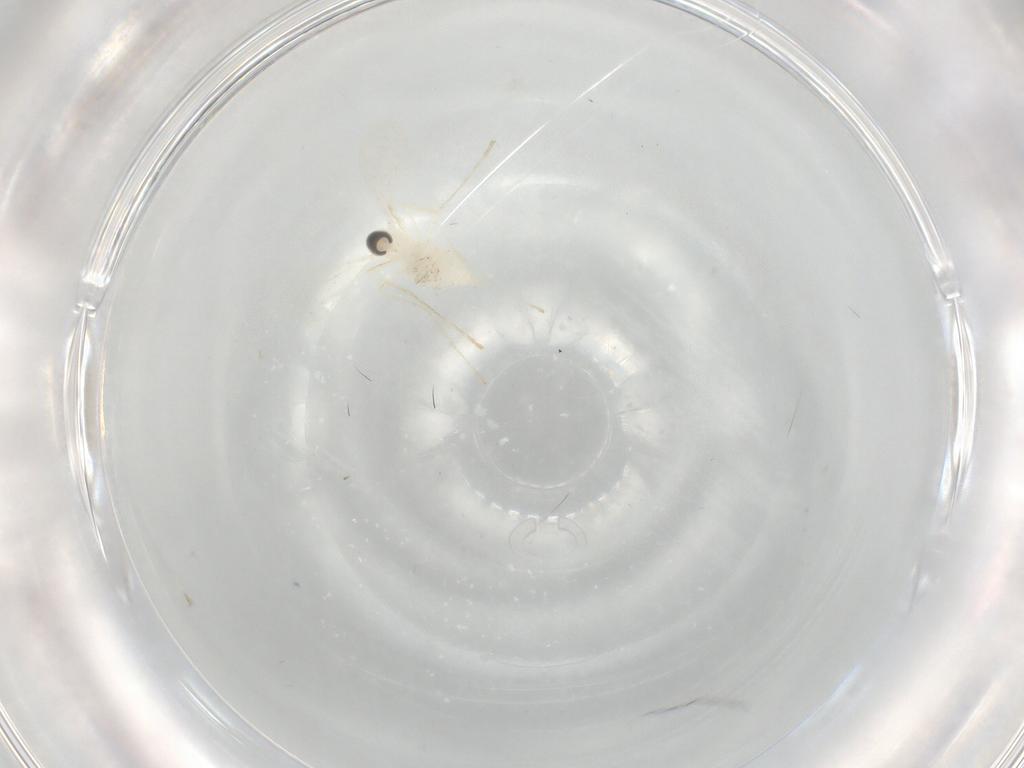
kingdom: Animalia
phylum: Arthropoda
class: Insecta
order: Diptera
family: Cecidomyiidae
